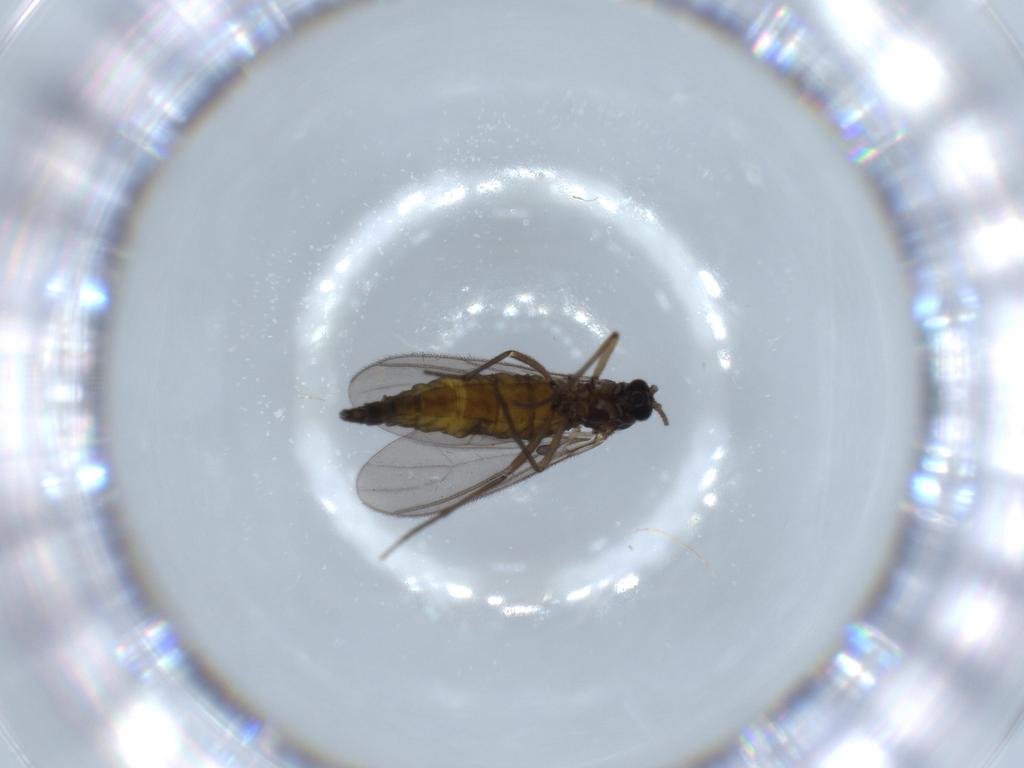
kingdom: Animalia
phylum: Arthropoda
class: Insecta
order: Diptera
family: Sciaridae
